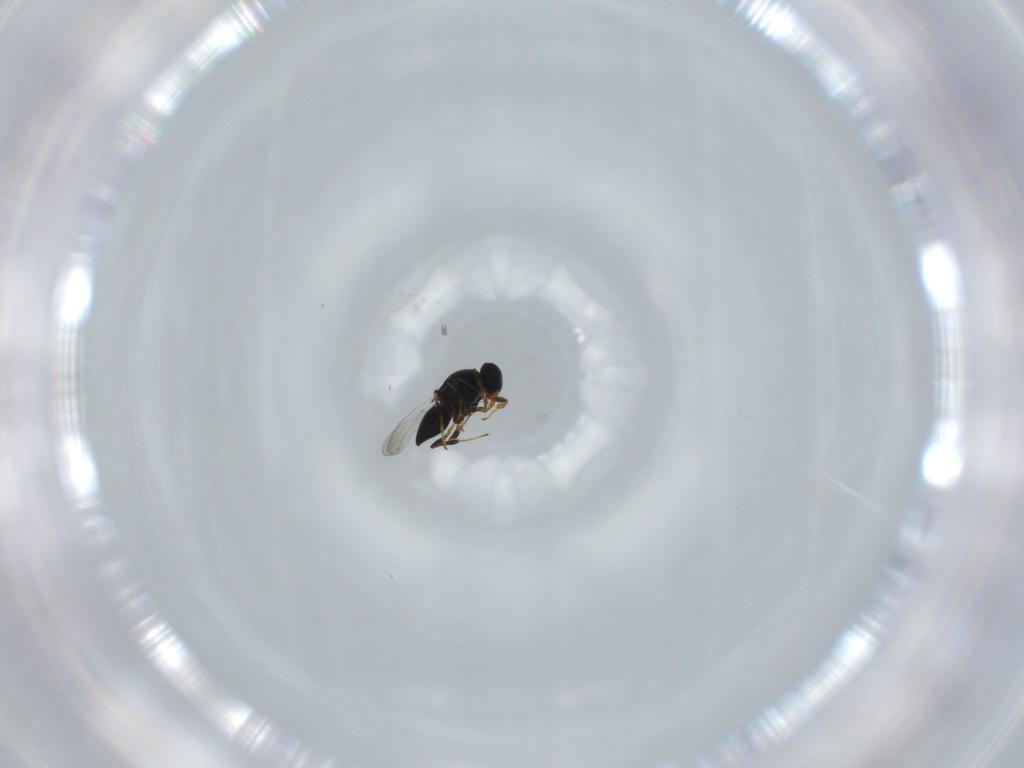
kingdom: Animalia
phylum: Arthropoda
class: Insecta
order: Hymenoptera
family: Platygastridae
